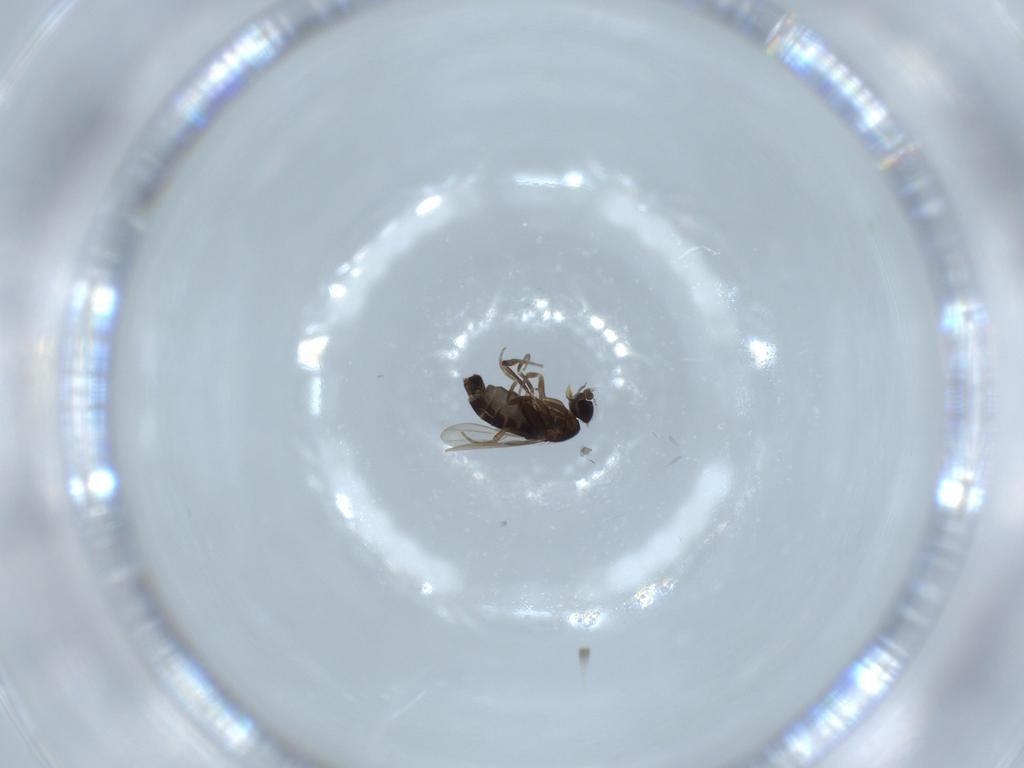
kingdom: Animalia
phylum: Arthropoda
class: Insecta
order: Diptera
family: Phoridae
